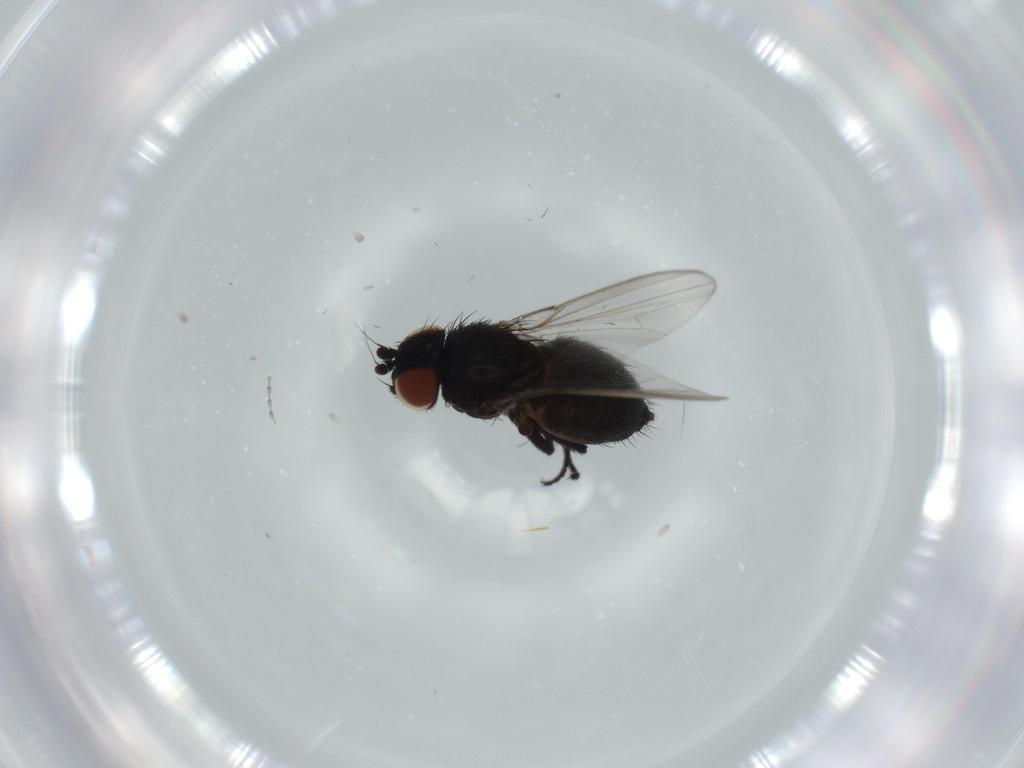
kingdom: Animalia
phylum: Arthropoda
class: Insecta
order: Diptera
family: Milichiidae
